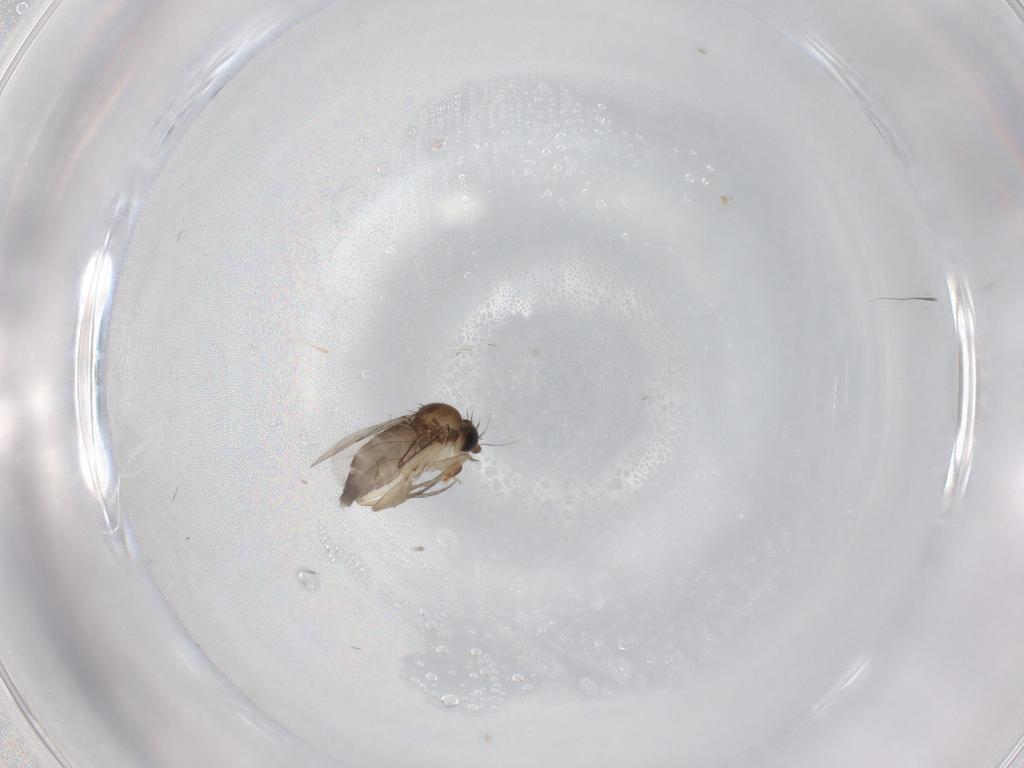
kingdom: Animalia
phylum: Arthropoda
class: Insecta
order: Diptera
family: Phoridae
